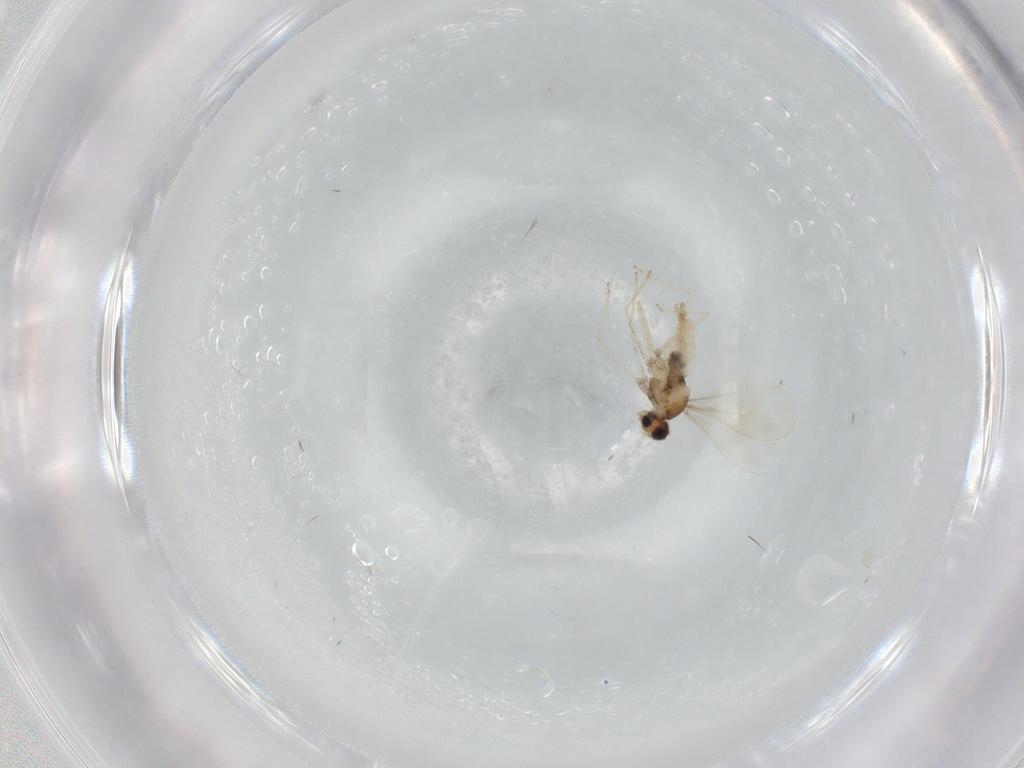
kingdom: Animalia
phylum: Arthropoda
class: Insecta
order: Diptera
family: Cecidomyiidae
